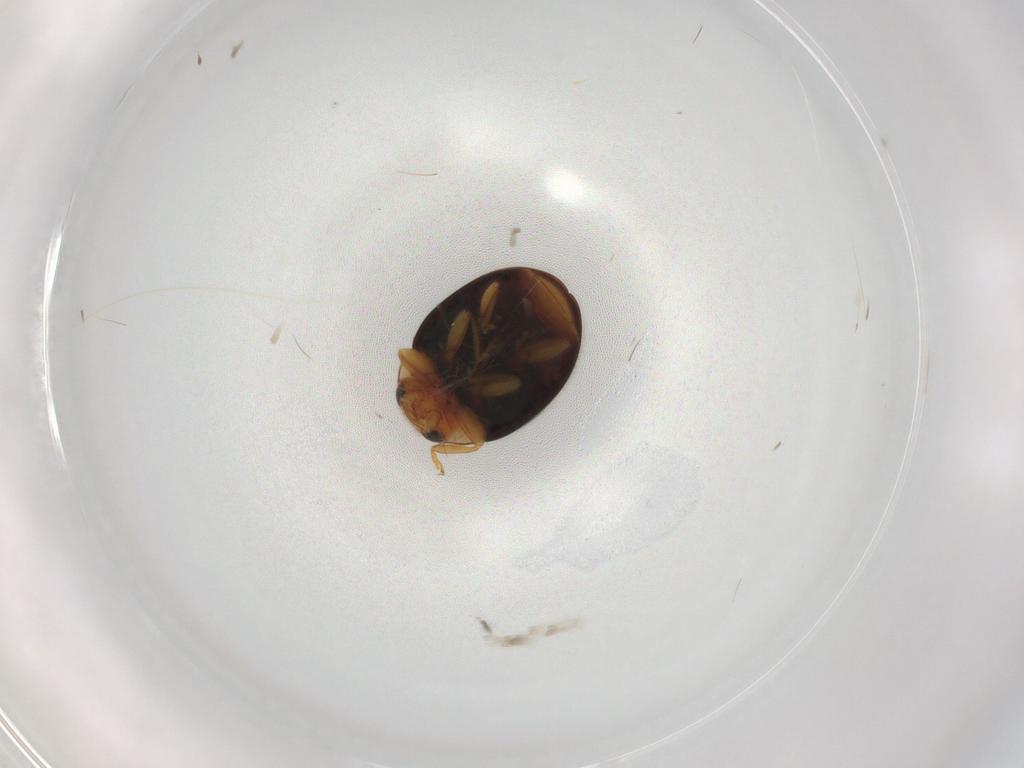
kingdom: Animalia
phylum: Arthropoda
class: Insecta
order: Coleoptera
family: Coccinellidae
